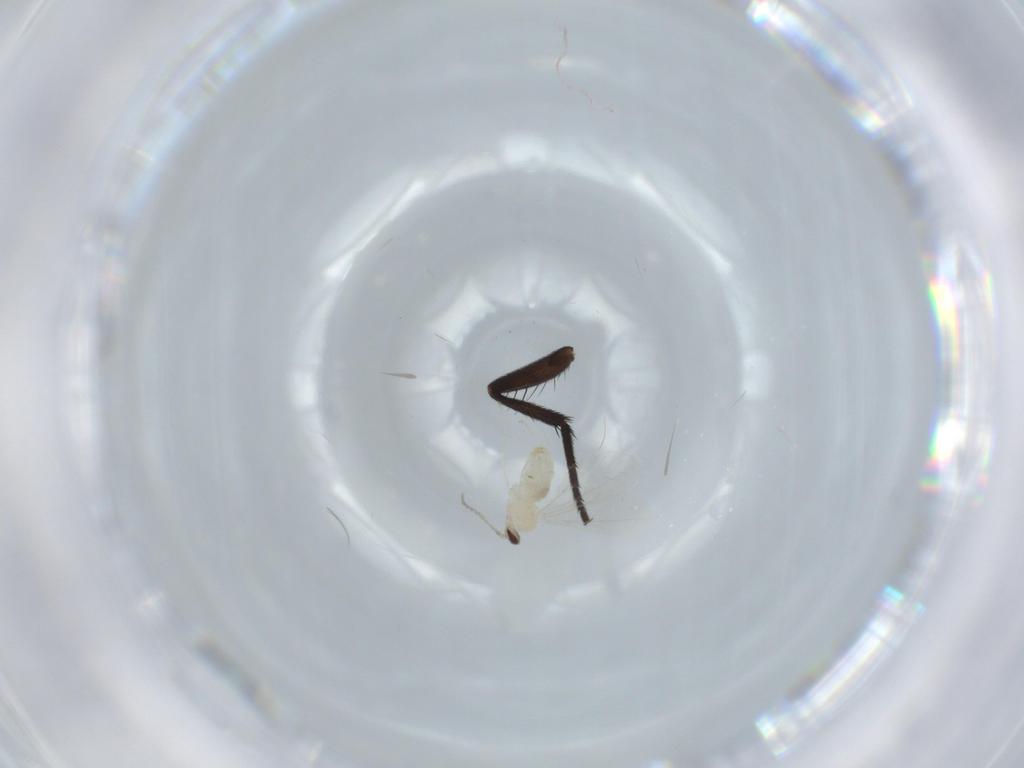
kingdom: Animalia
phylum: Arthropoda
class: Insecta
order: Diptera
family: Cecidomyiidae
